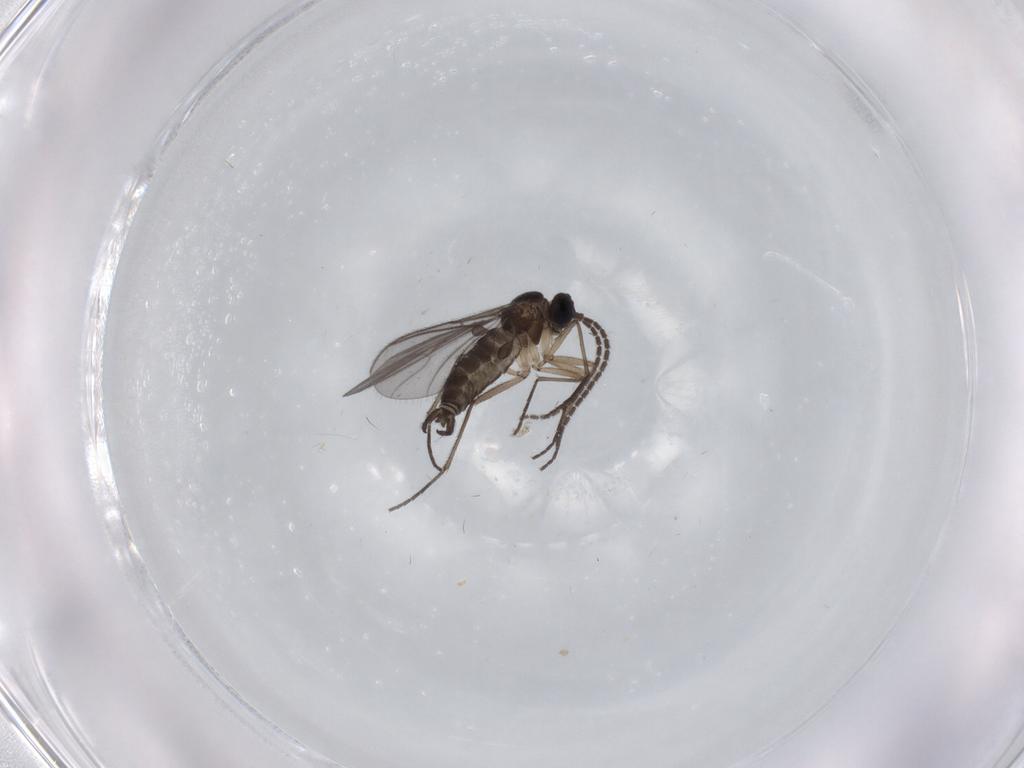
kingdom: Animalia
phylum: Arthropoda
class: Insecta
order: Diptera
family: Sciaridae
